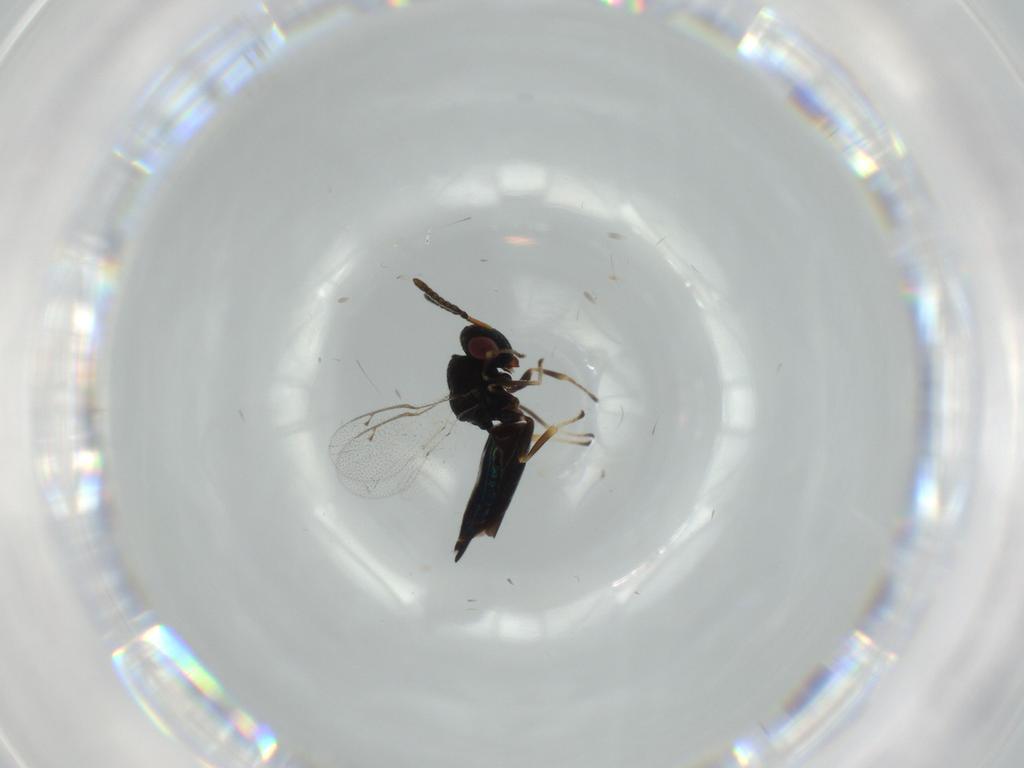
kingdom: Animalia
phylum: Arthropoda
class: Insecta
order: Hymenoptera
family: Pteromalidae
